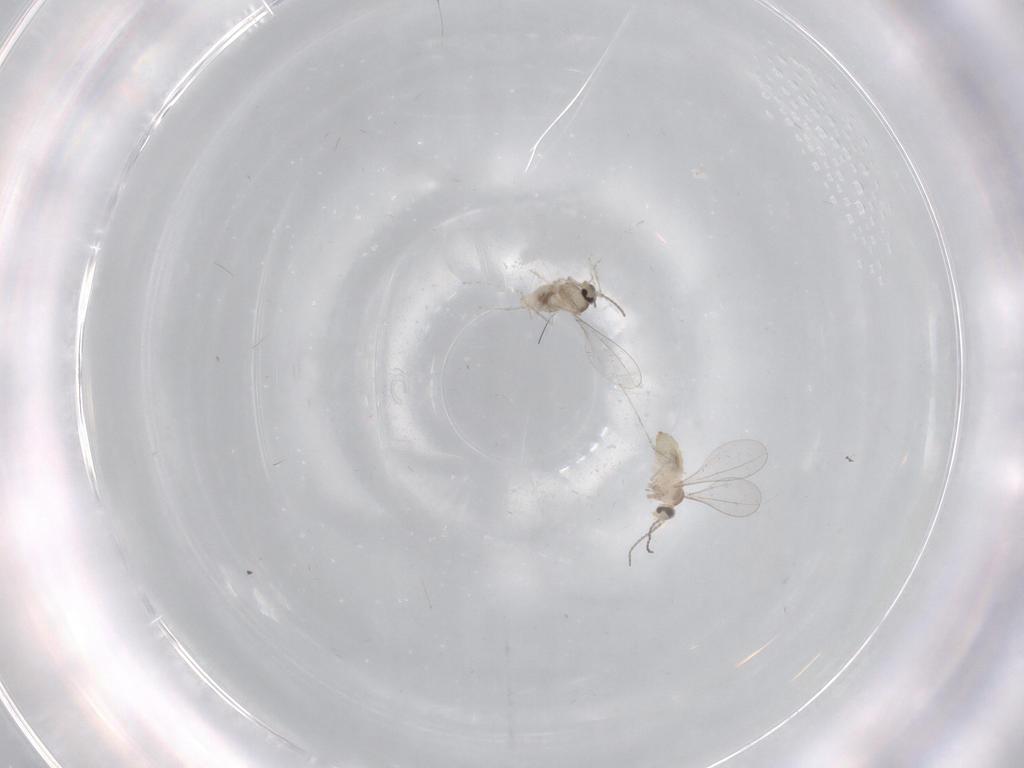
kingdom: Animalia
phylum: Arthropoda
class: Insecta
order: Diptera
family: Cecidomyiidae
